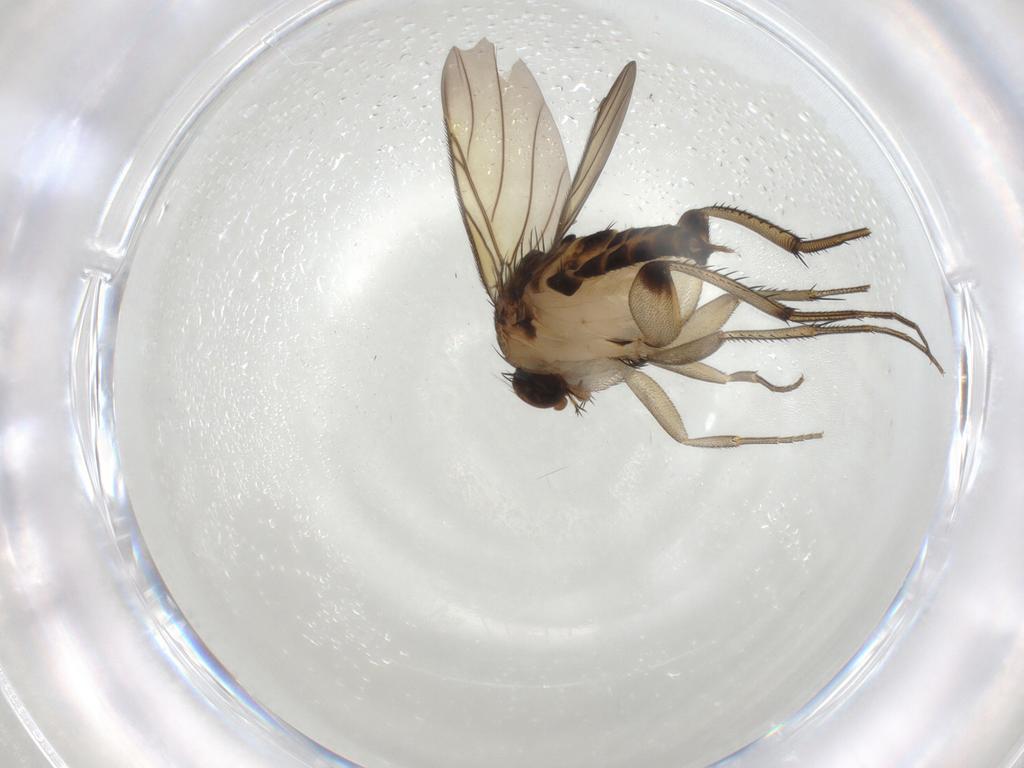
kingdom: Animalia
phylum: Arthropoda
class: Insecta
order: Diptera
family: Phoridae
